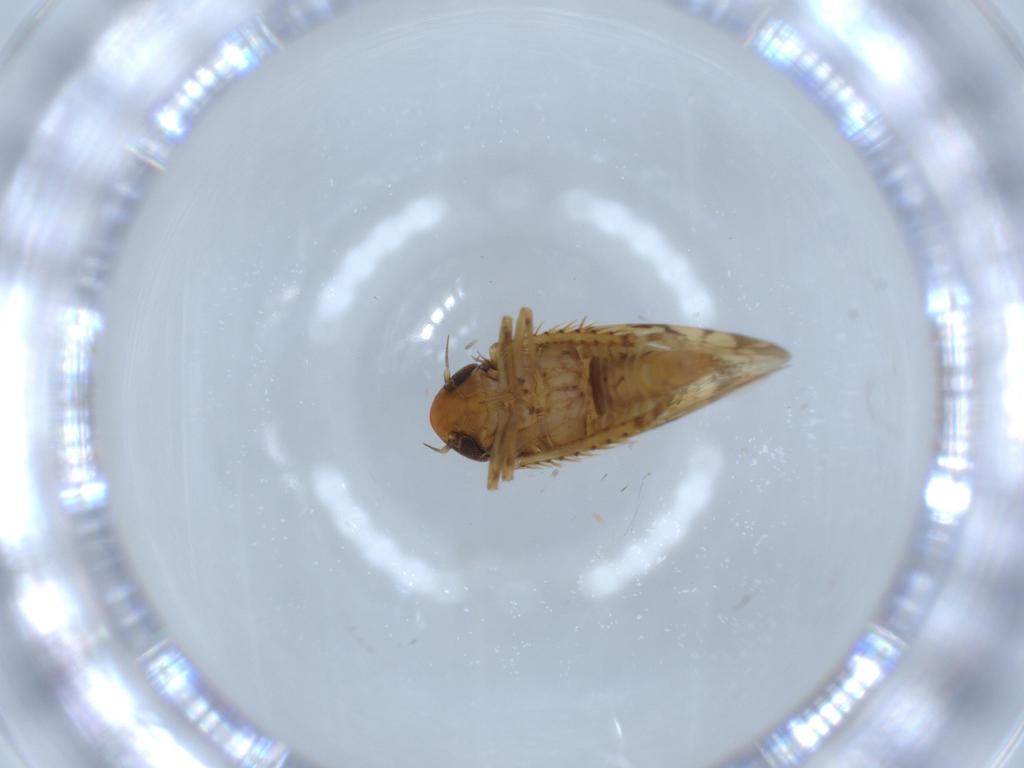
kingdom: Animalia
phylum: Arthropoda
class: Insecta
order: Hemiptera
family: Cicadellidae
